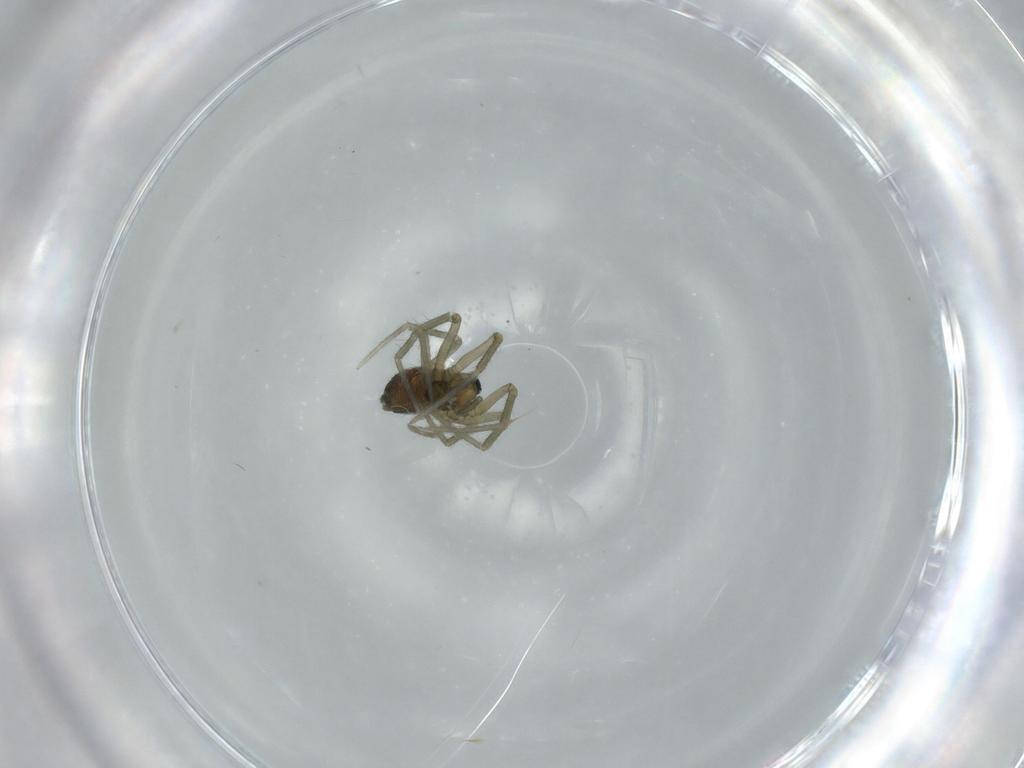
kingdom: Animalia
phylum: Arthropoda
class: Arachnida
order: Araneae
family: Linyphiidae
